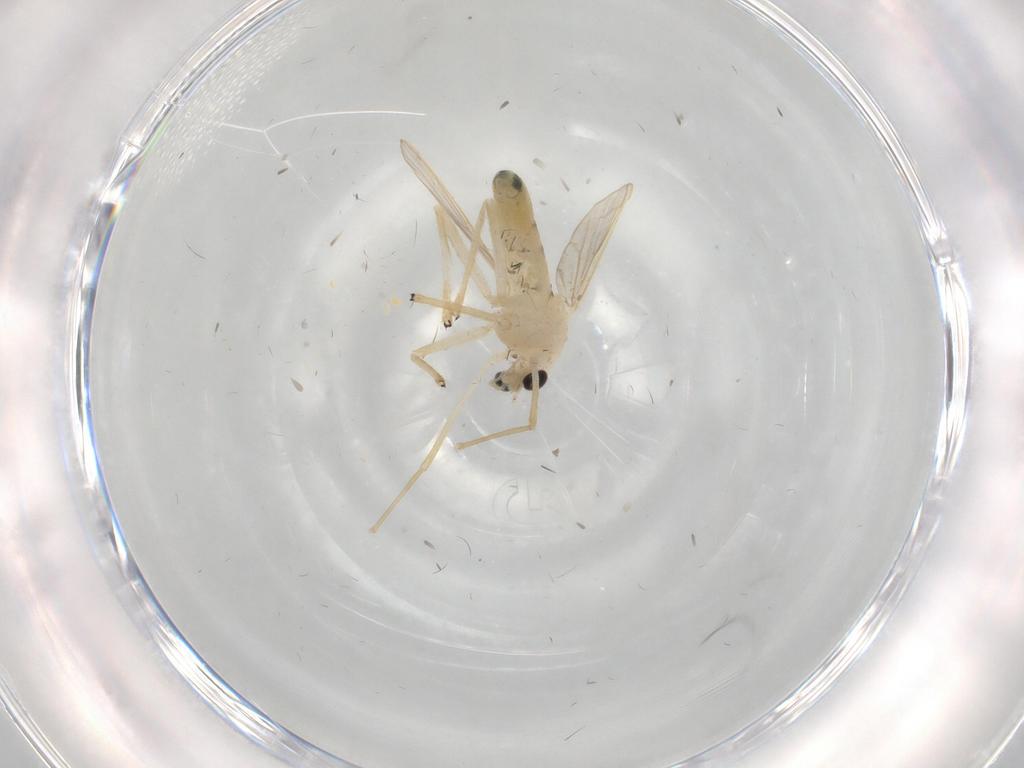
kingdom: Animalia
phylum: Arthropoda
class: Insecta
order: Diptera
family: Chironomidae
